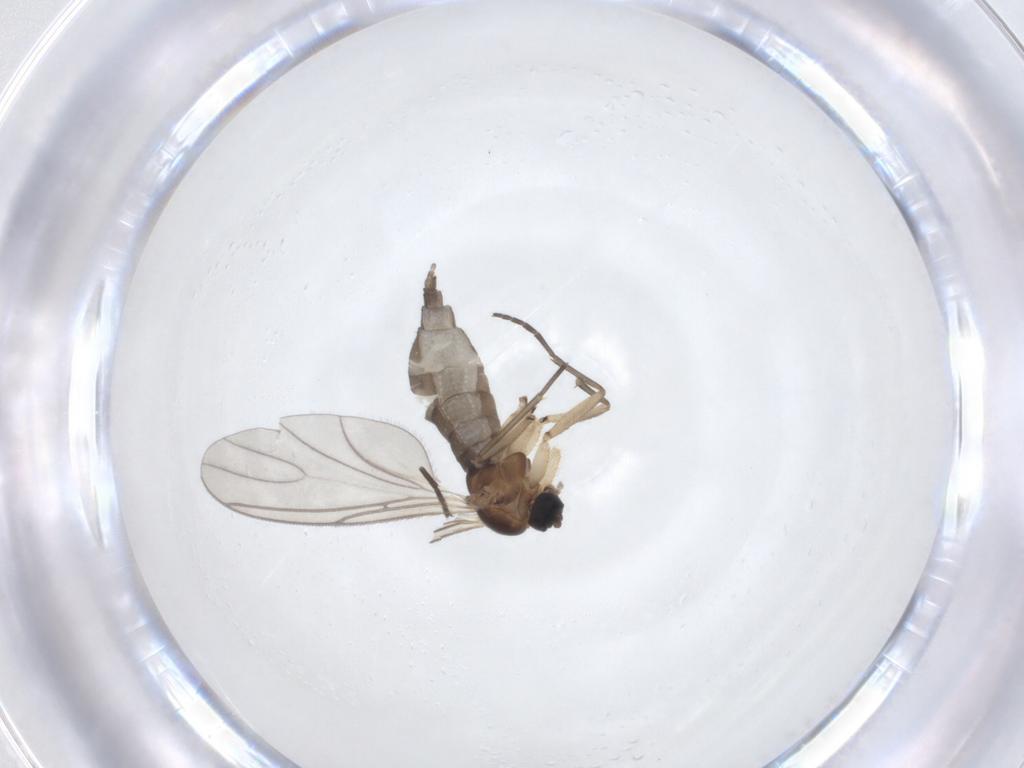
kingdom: Animalia
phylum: Arthropoda
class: Insecta
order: Diptera
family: Sciaridae
